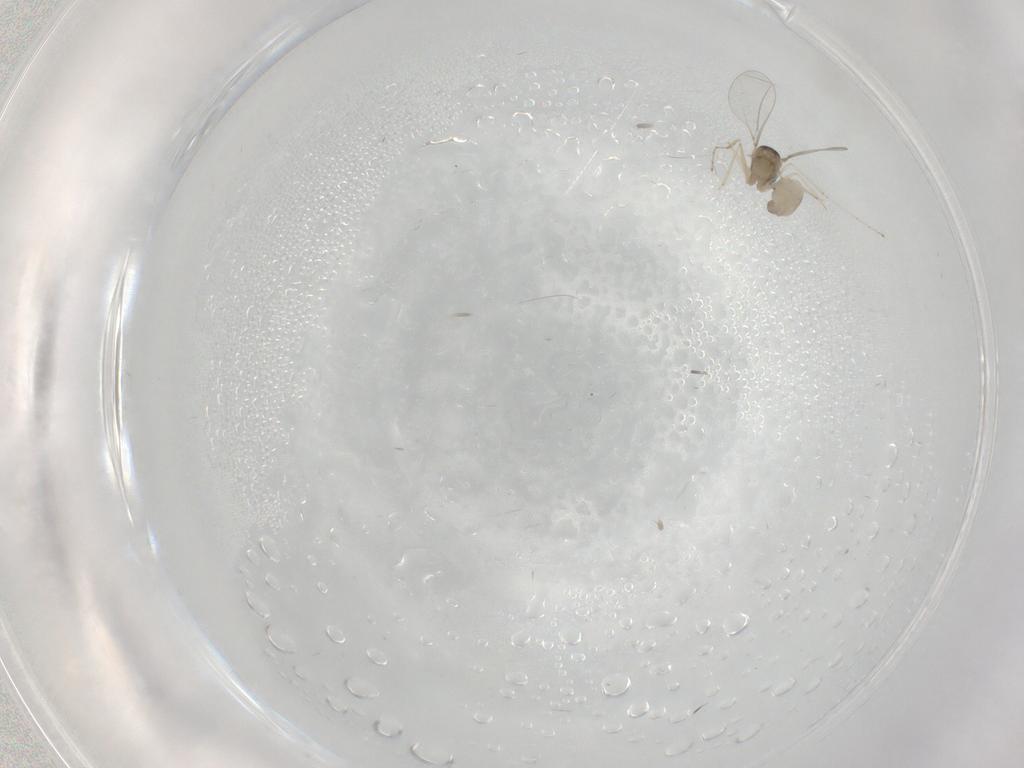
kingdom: Animalia
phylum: Arthropoda
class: Insecta
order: Diptera
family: Cecidomyiidae
